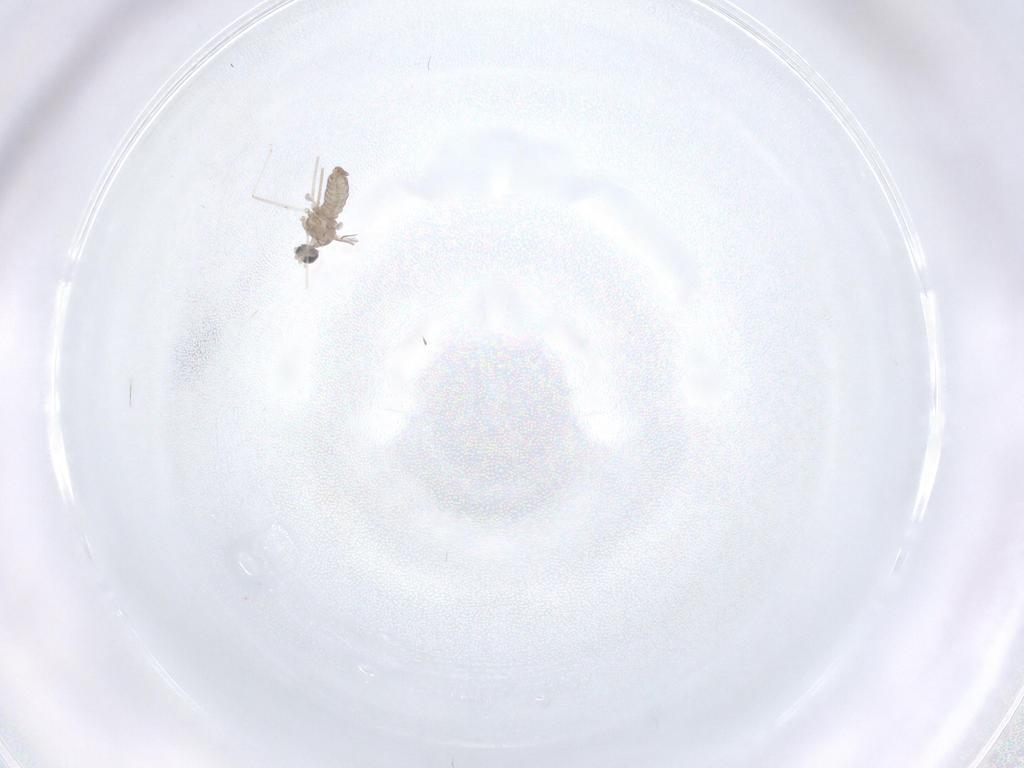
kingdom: Animalia
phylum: Arthropoda
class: Insecta
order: Diptera
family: Cecidomyiidae
